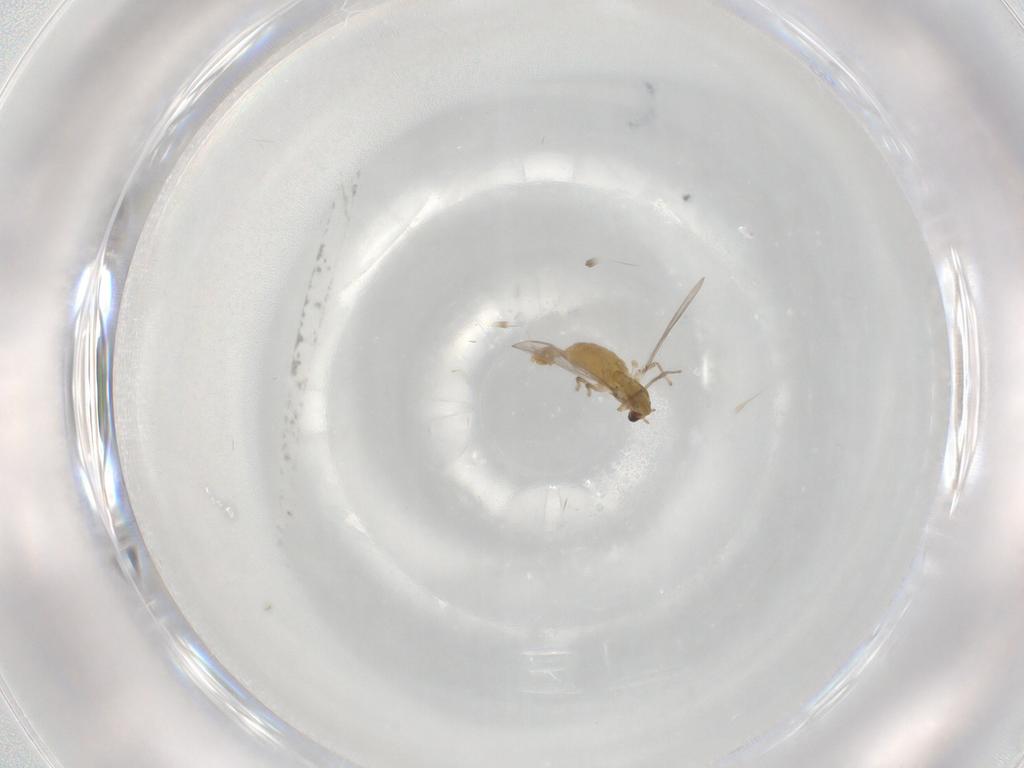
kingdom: Animalia
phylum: Arthropoda
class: Insecta
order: Diptera
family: Chironomidae
